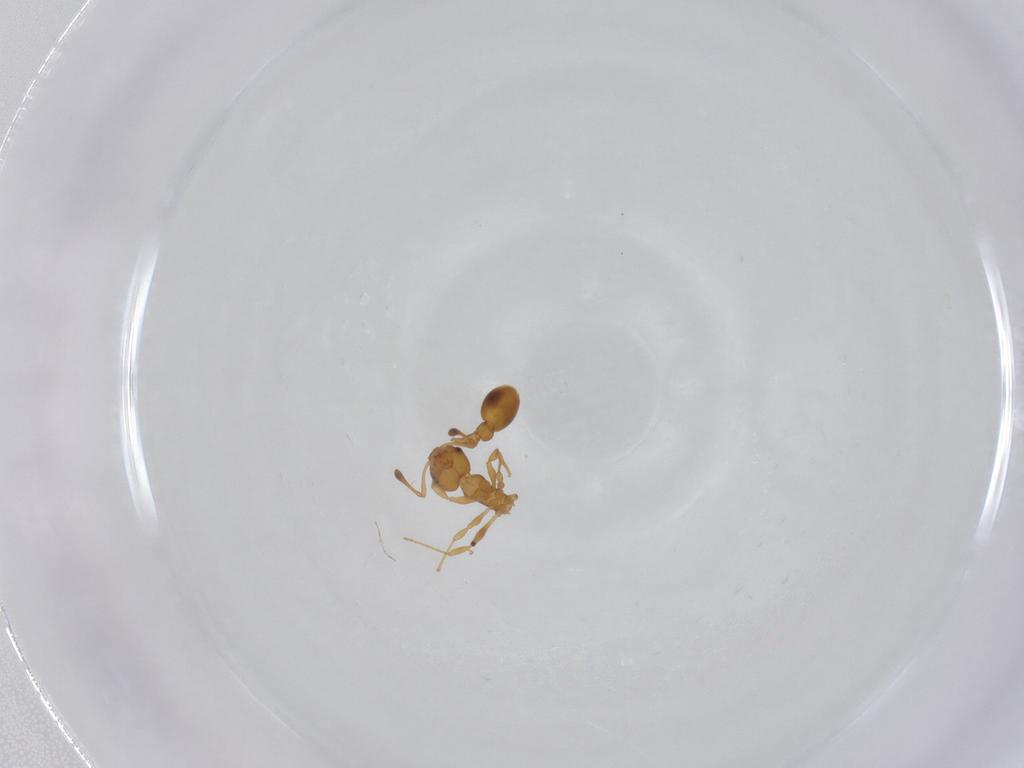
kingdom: Animalia
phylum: Arthropoda
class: Insecta
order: Hymenoptera
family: Formicidae
